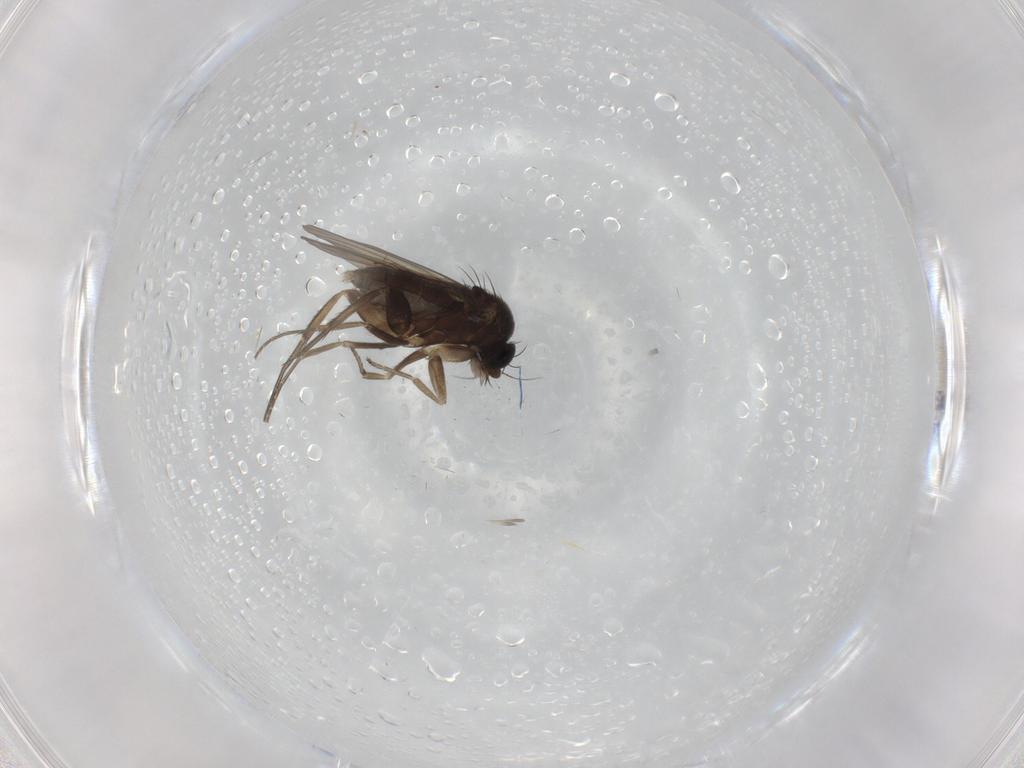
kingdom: Animalia
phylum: Arthropoda
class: Insecta
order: Diptera
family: Phoridae
